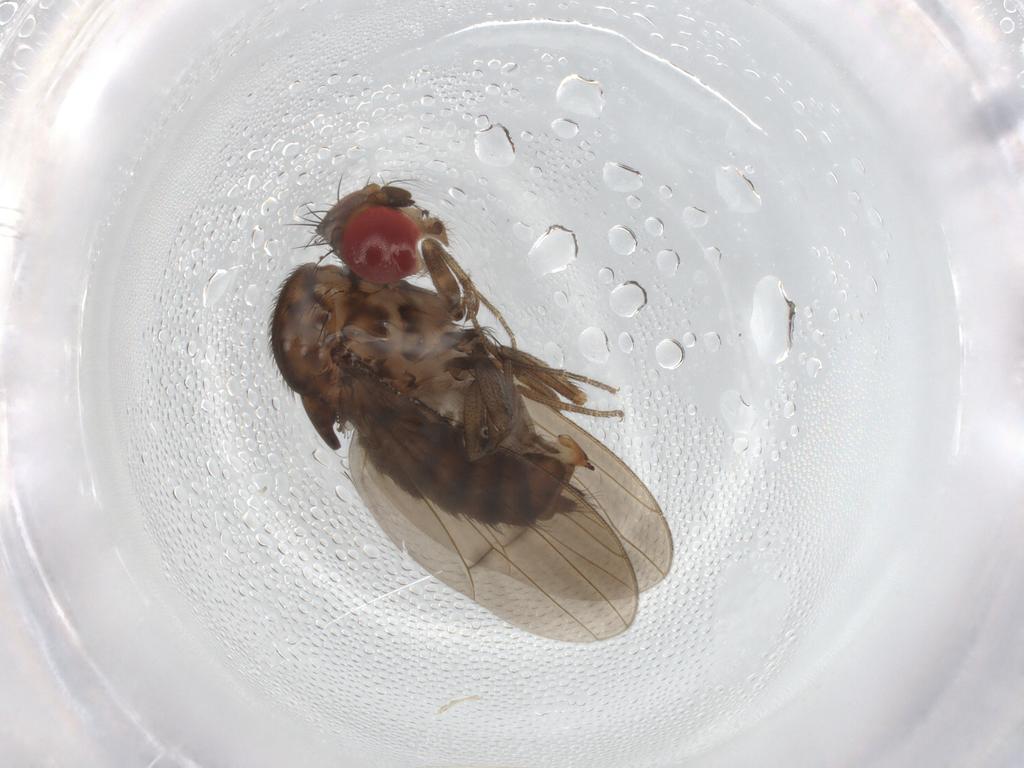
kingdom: Animalia
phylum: Arthropoda
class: Insecta
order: Diptera
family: Drosophilidae
